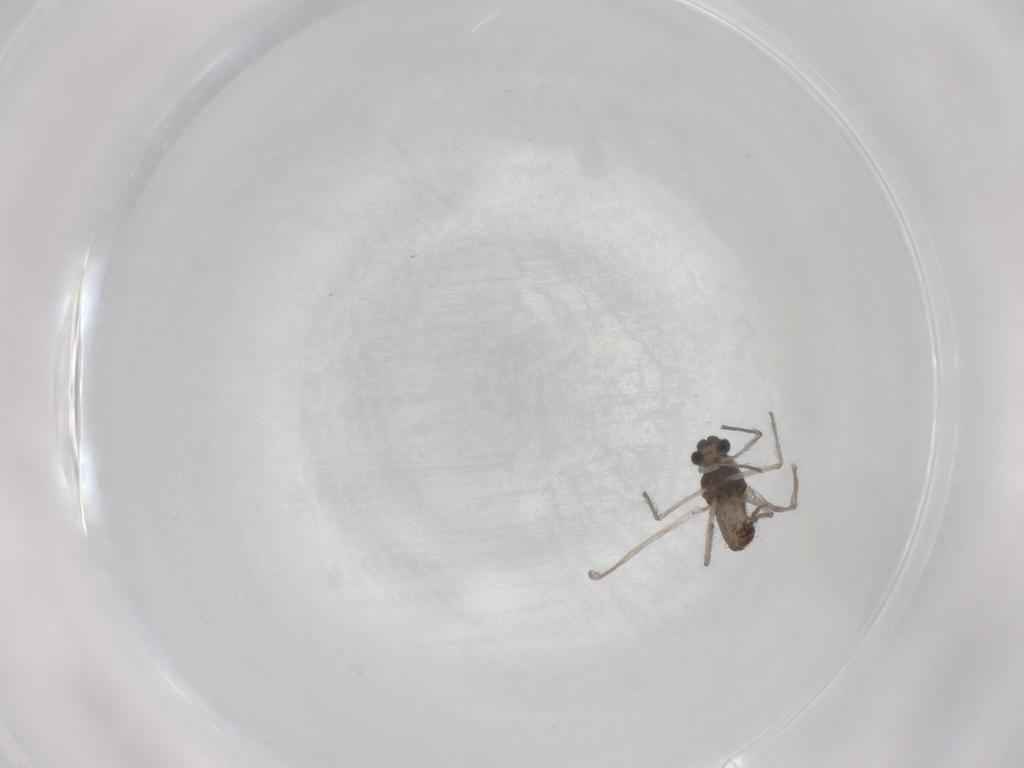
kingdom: Animalia
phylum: Arthropoda
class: Insecta
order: Diptera
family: Chironomidae
